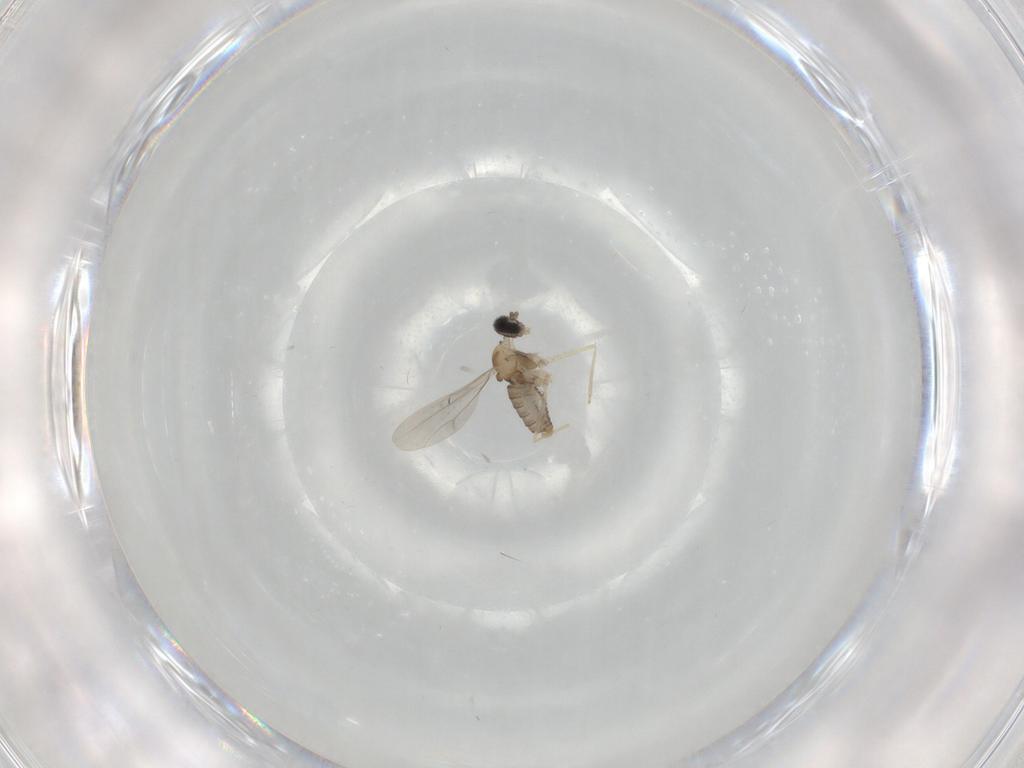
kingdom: Animalia
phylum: Arthropoda
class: Insecta
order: Diptera
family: Cecidomyiidae
